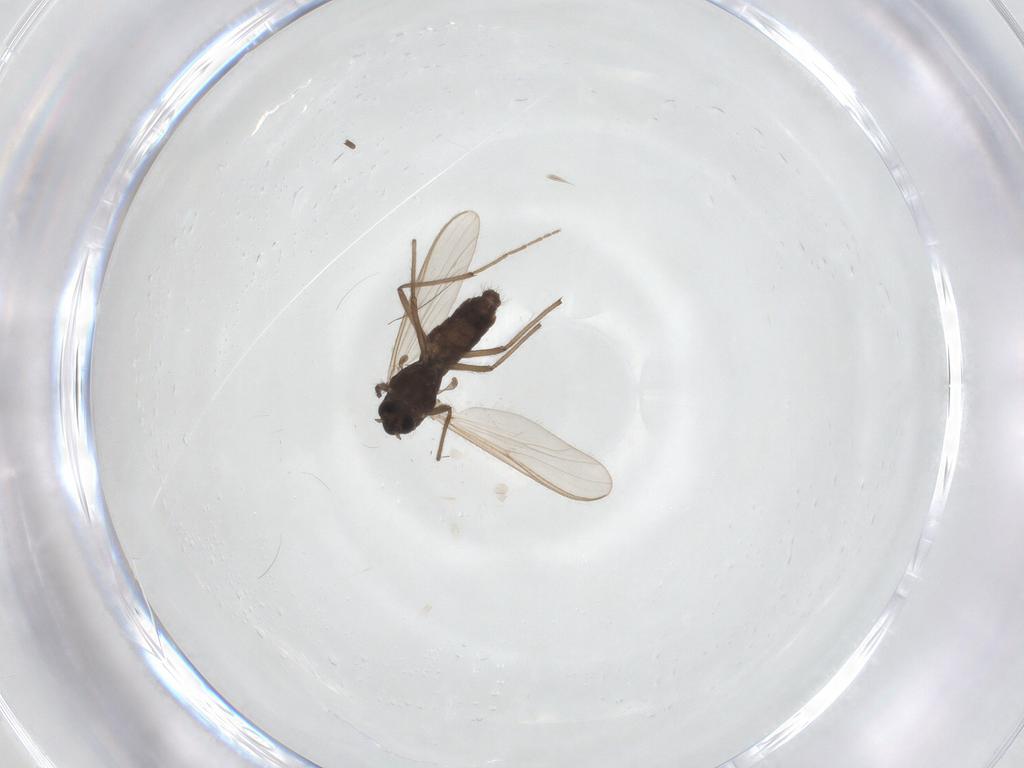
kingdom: Animalia
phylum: Arthropoda
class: Insecta
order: Diptera
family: Mycetophilidae
